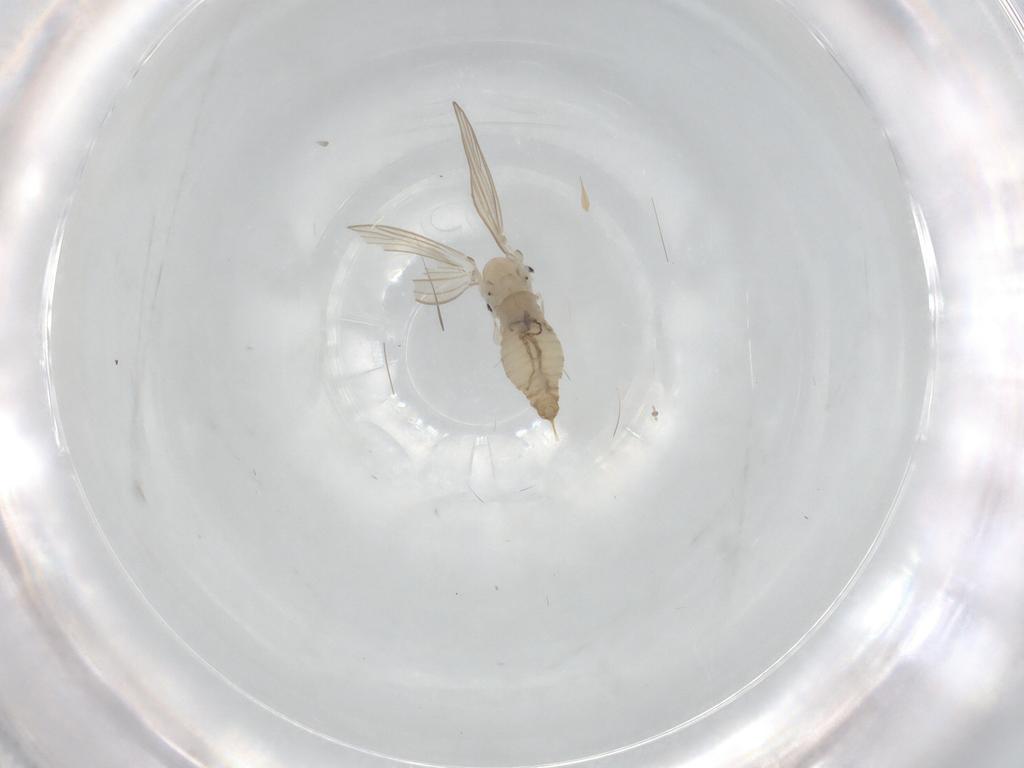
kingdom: Animalia
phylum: Arthropoda
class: Insecta
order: Diptera
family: Psychodidae
